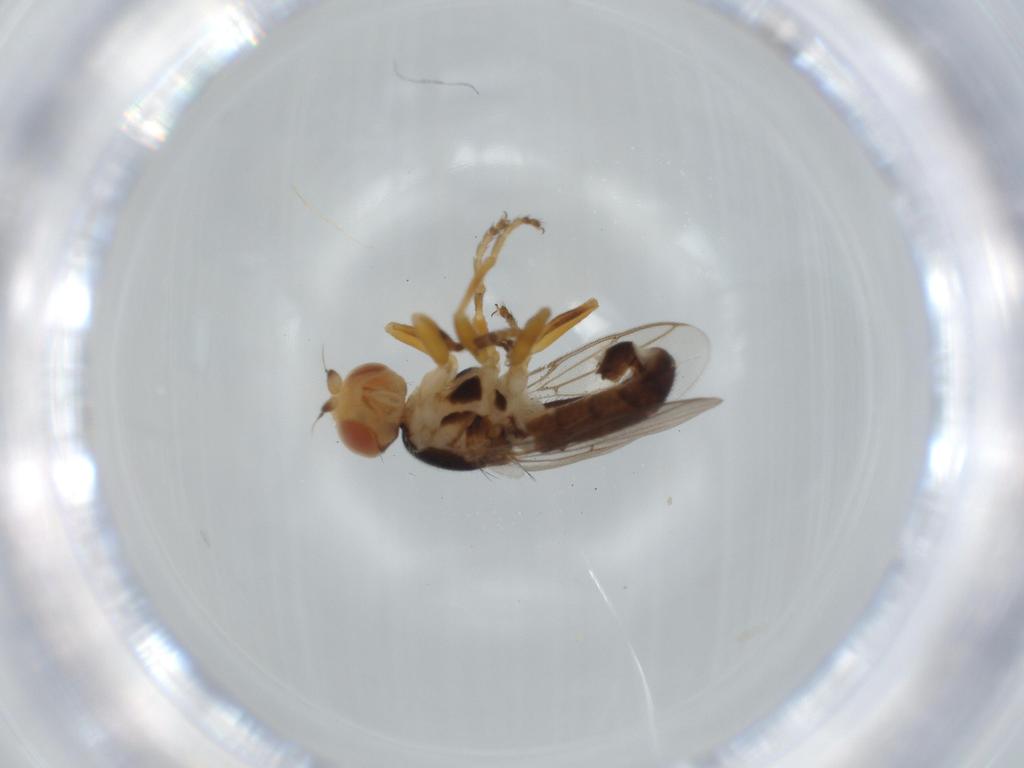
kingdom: Animalia
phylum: Arthropoda
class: Insecta
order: Diptera
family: Chloropidae
